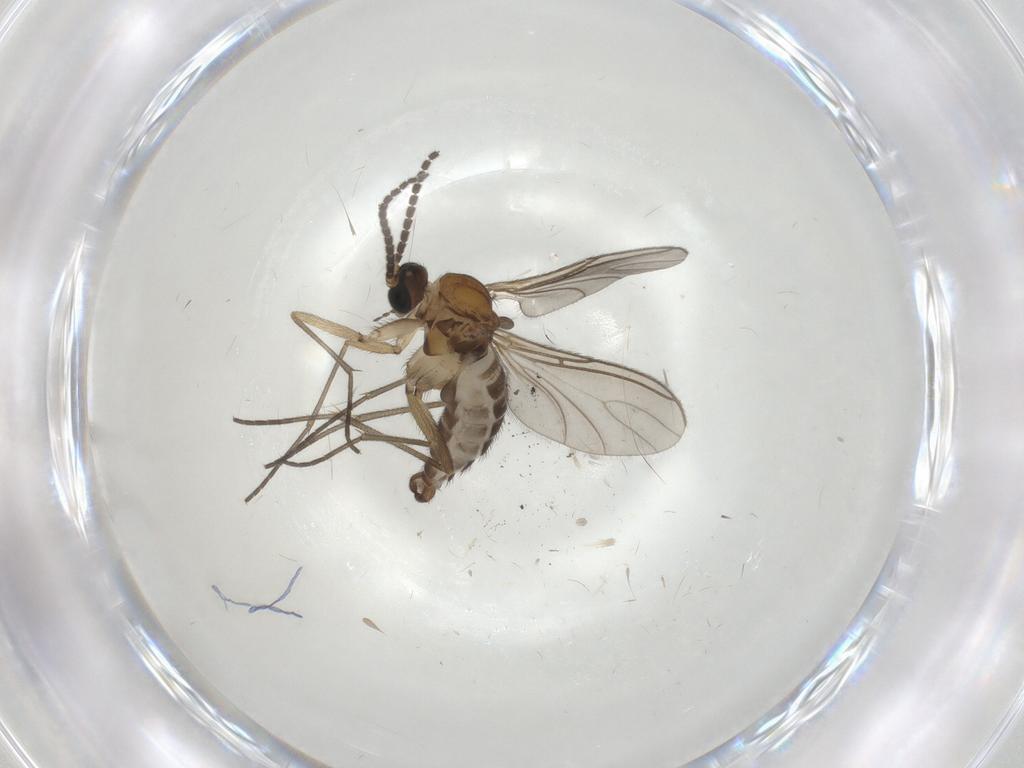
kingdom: Animalia
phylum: Arthropoda
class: Insecta
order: Diptera
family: Sciaridae
